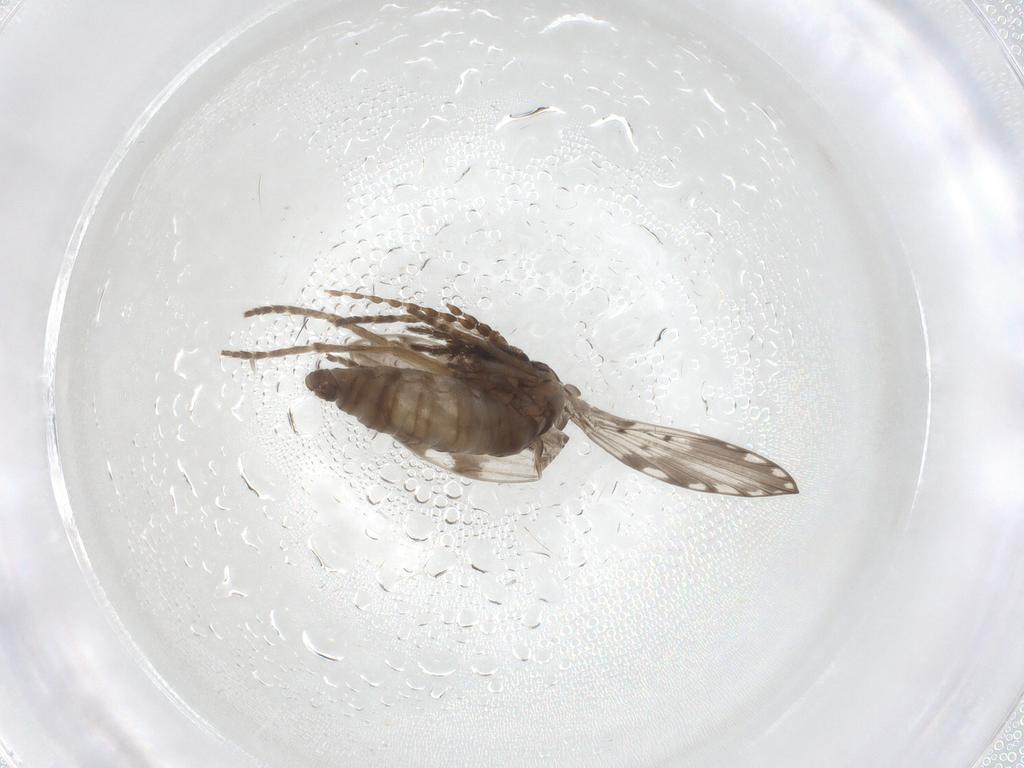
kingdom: Animalia
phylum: Arthropoda
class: Insecta
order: Diptera
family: Psychodidae
